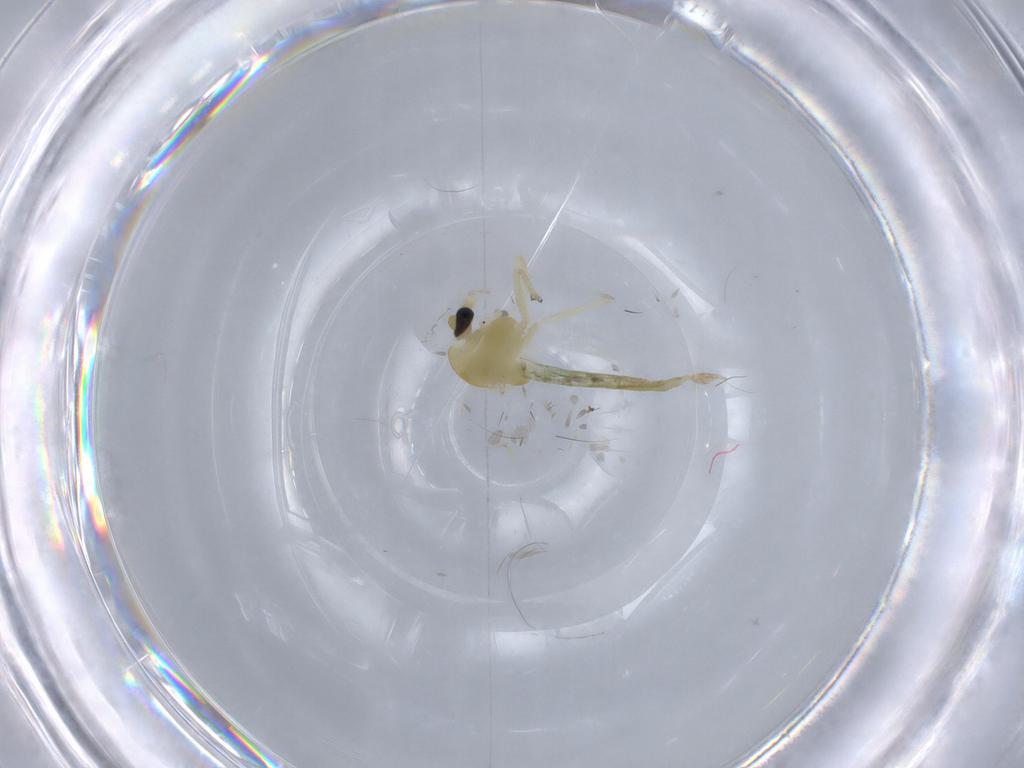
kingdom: Animalia
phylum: Arthropoda
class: Insecta
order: Diptera
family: Chironomidae
